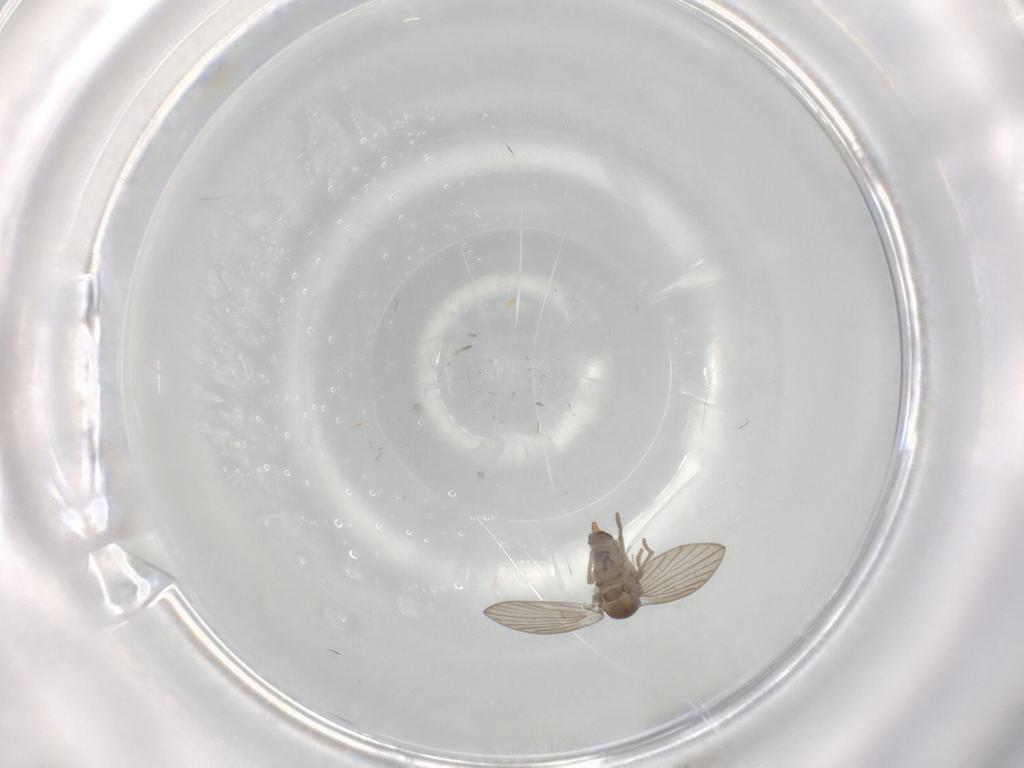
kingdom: Animalia
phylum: Arthropoda
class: Insecta
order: Diptera
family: Psychodidae
